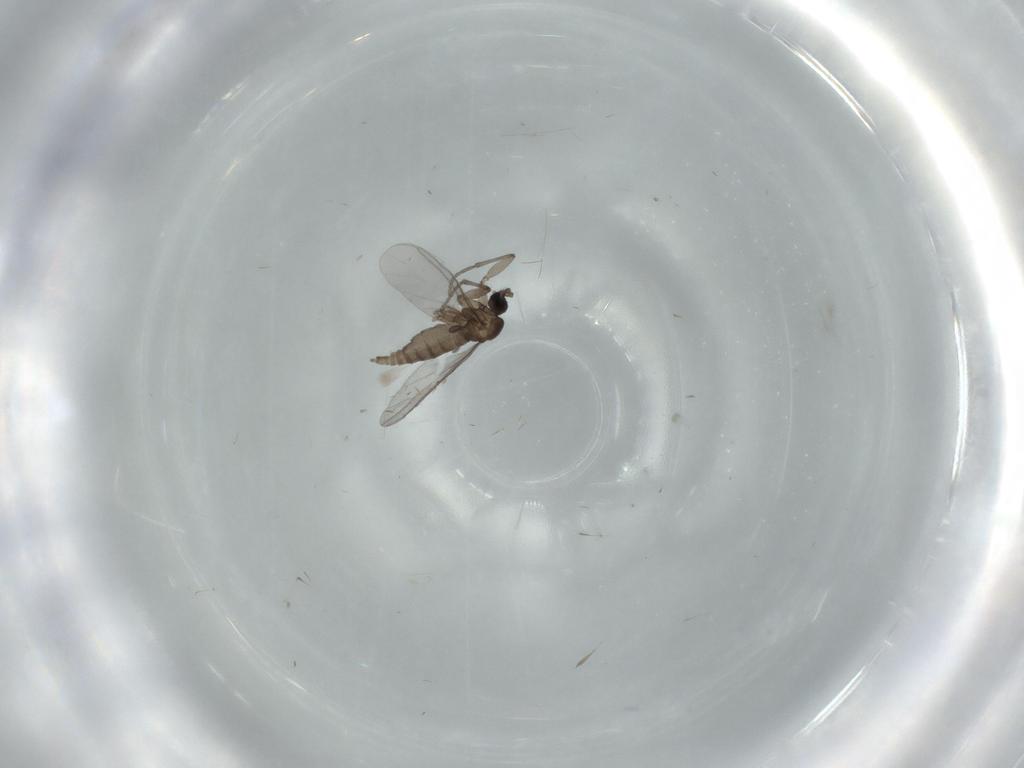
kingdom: Animalia
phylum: Arthropoda
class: Insecta
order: Diptera
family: Sciaridae
